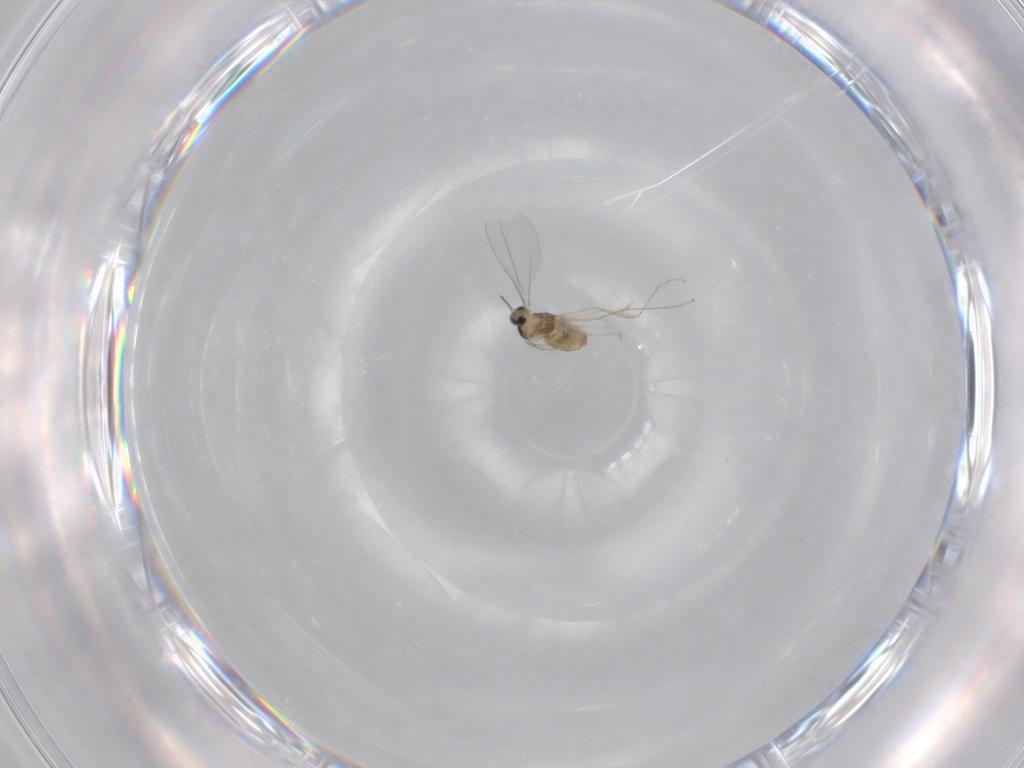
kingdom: Animalia
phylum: Arthropoda
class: Insecta
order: Diptera
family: Cecidomyiidae
